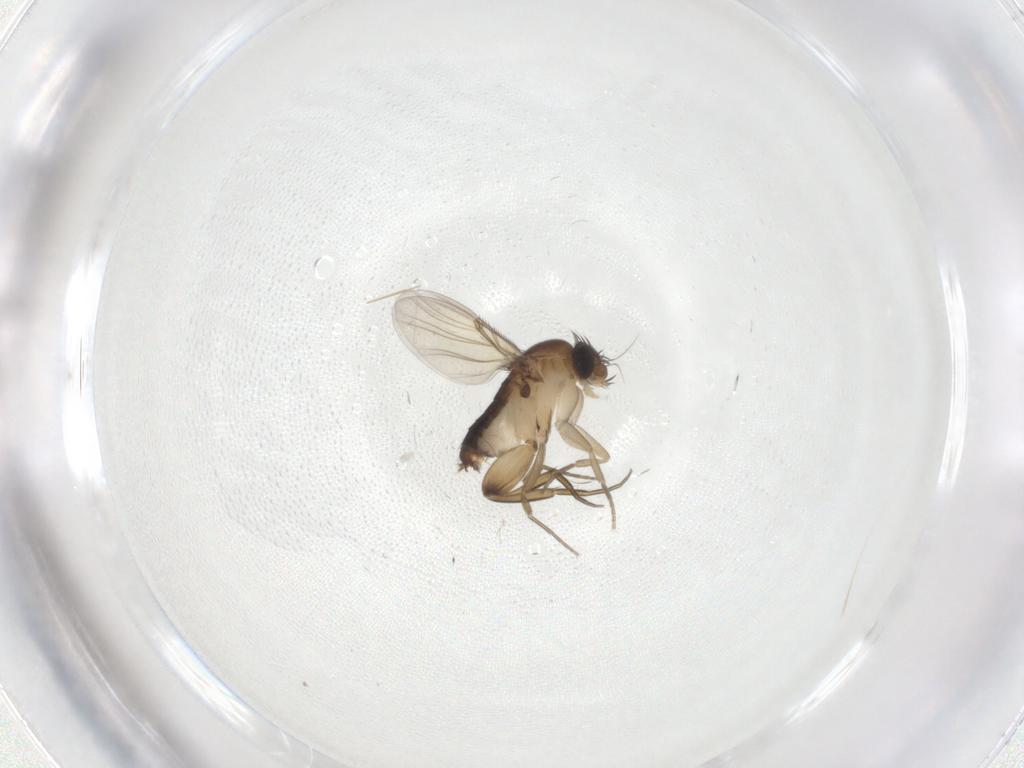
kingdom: Animalia
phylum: Arthropoda
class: Insecta
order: Diptera
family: Phoridae
